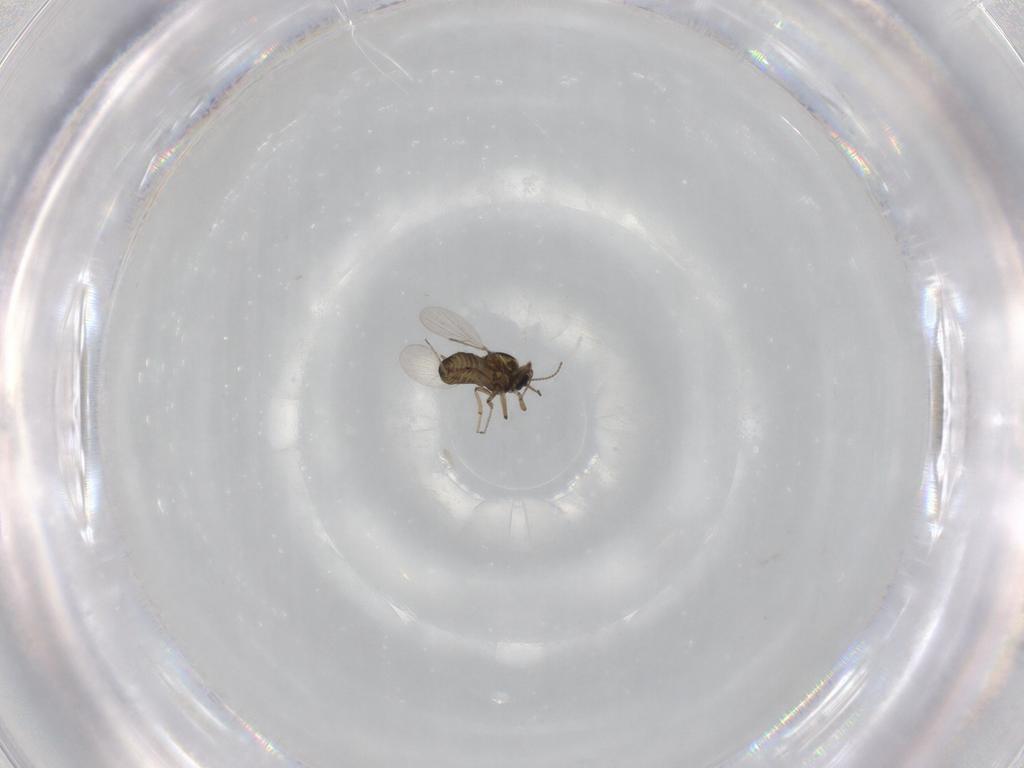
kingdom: Animalia
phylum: Arthropoda
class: Insecta
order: Diptera
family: Ceratopogonidae
